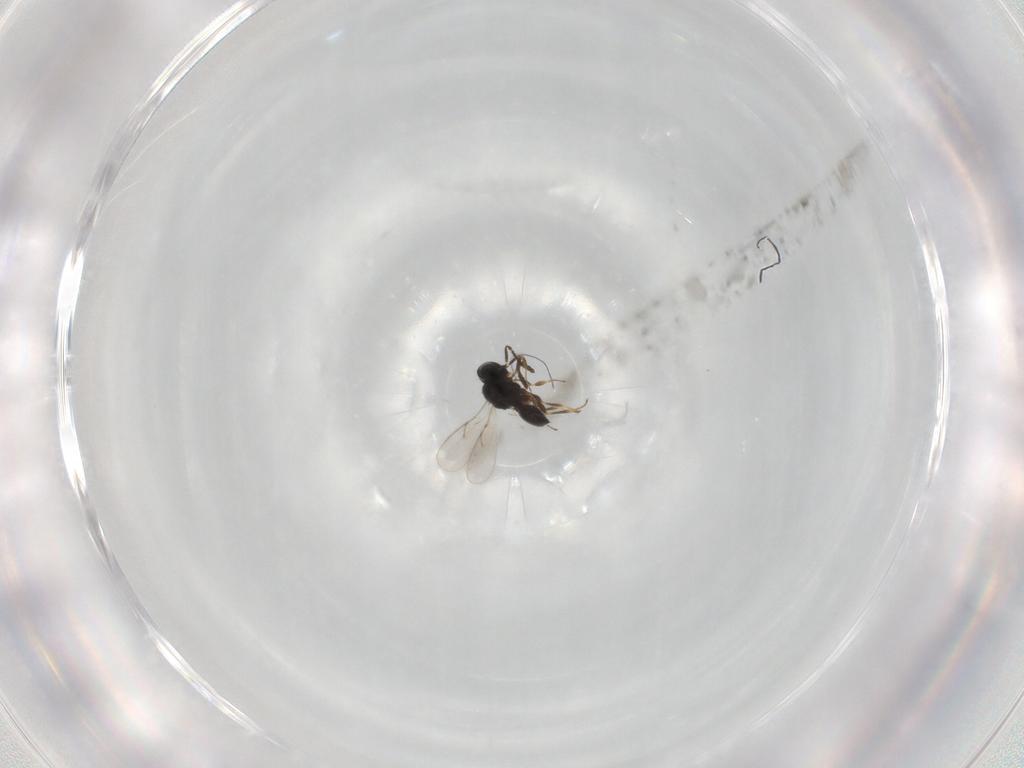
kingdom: Animalia
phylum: Arthropoda
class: Insecta
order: Hymenoptera
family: Scelionidae
